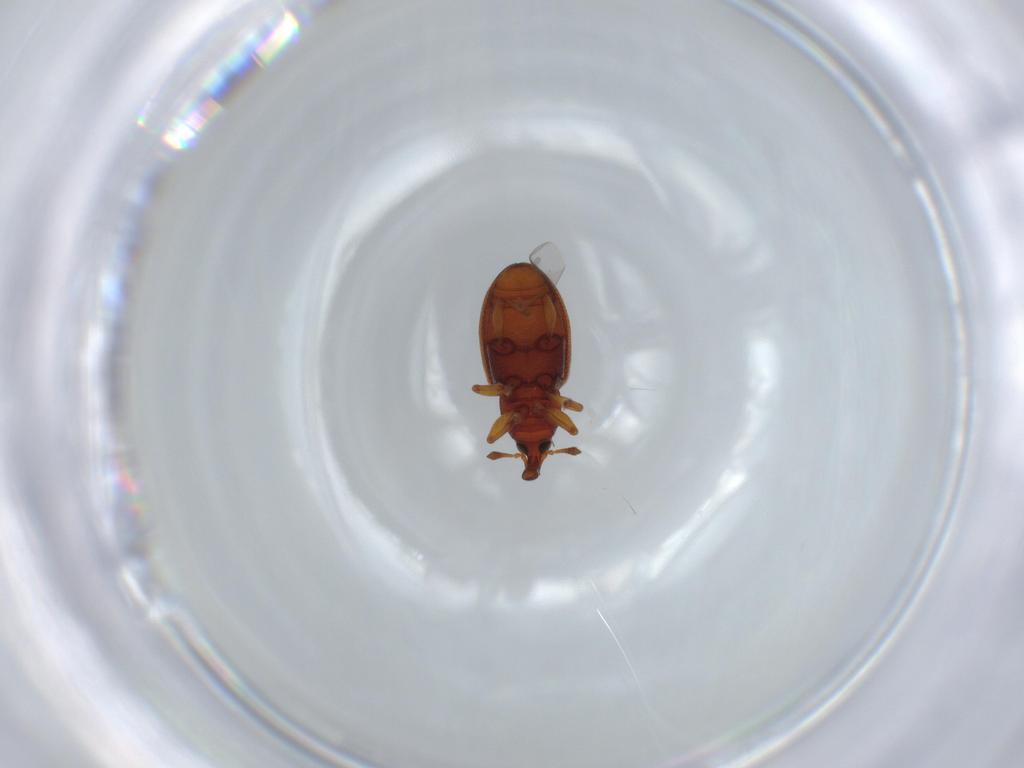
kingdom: Animalia
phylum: Arthropoda
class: Insecta
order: Coleoptera
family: Curculionidae
